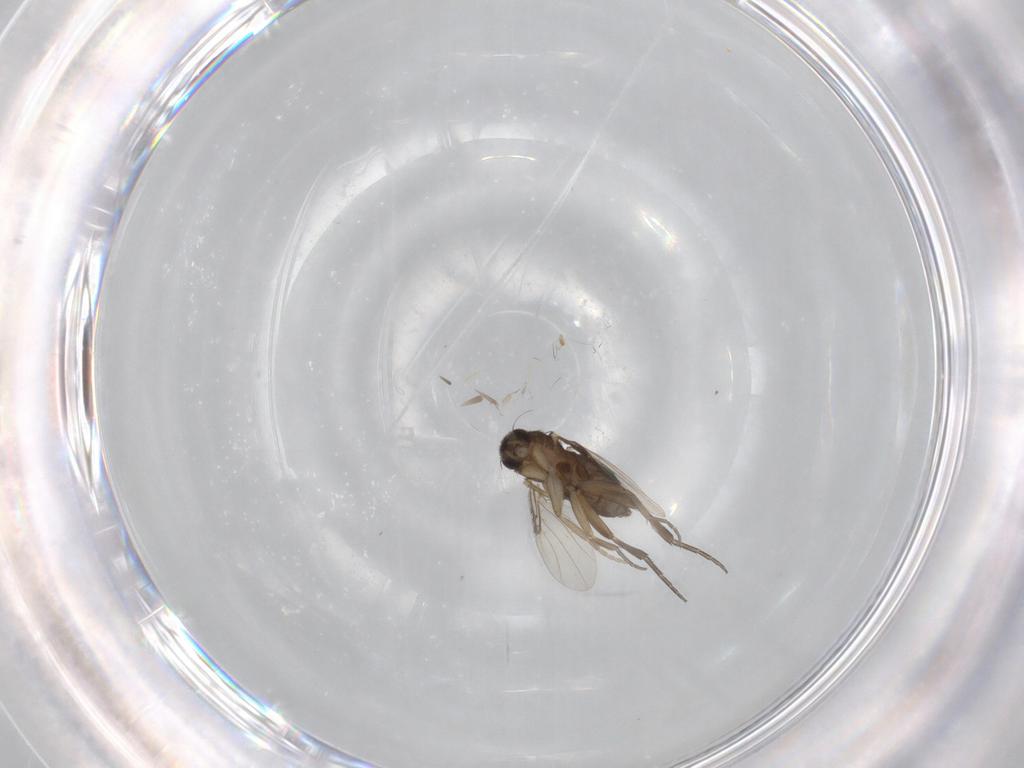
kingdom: Animalia
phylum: Arthropoda
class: Insecta
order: Diptera
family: Phoridae
